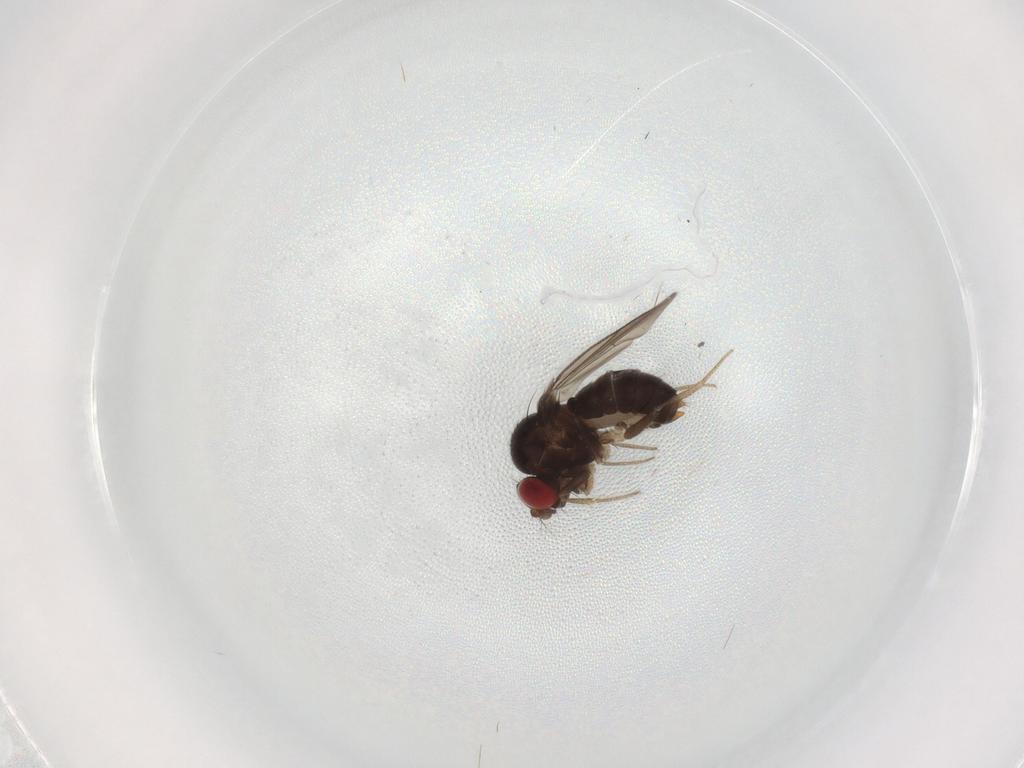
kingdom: Animalia
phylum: Arthropoda
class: Insecta
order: Diptera
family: Drosophilidae
